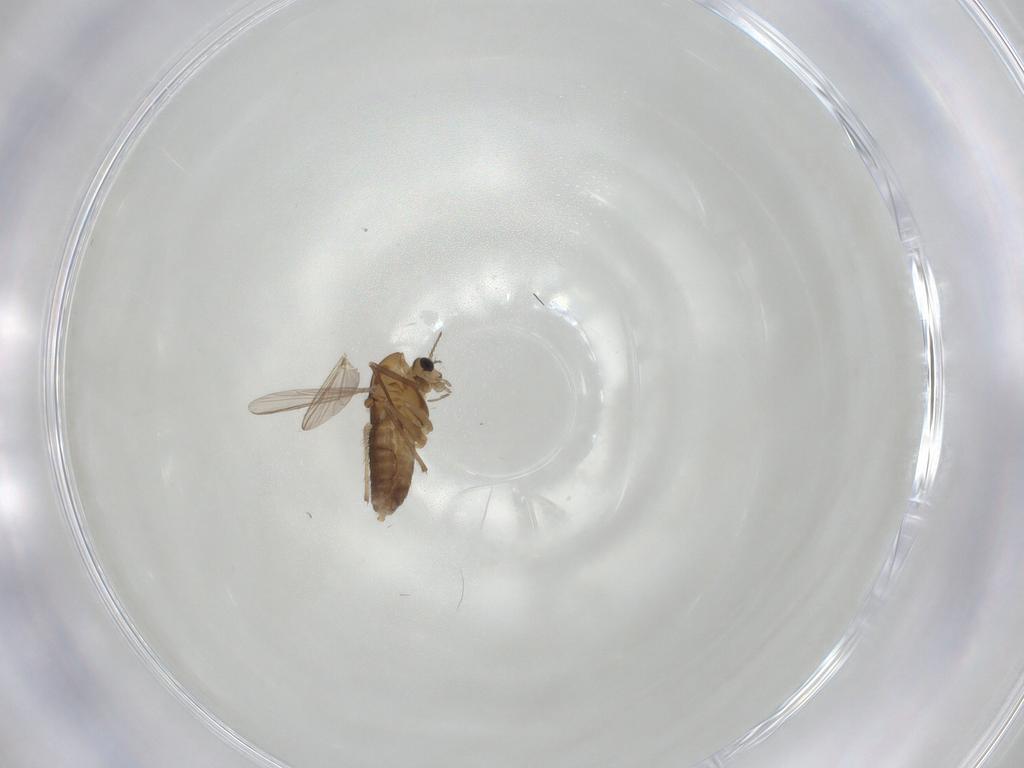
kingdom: Animalia
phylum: Arthropoda
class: Insecta
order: Diptera
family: Chironomidae
